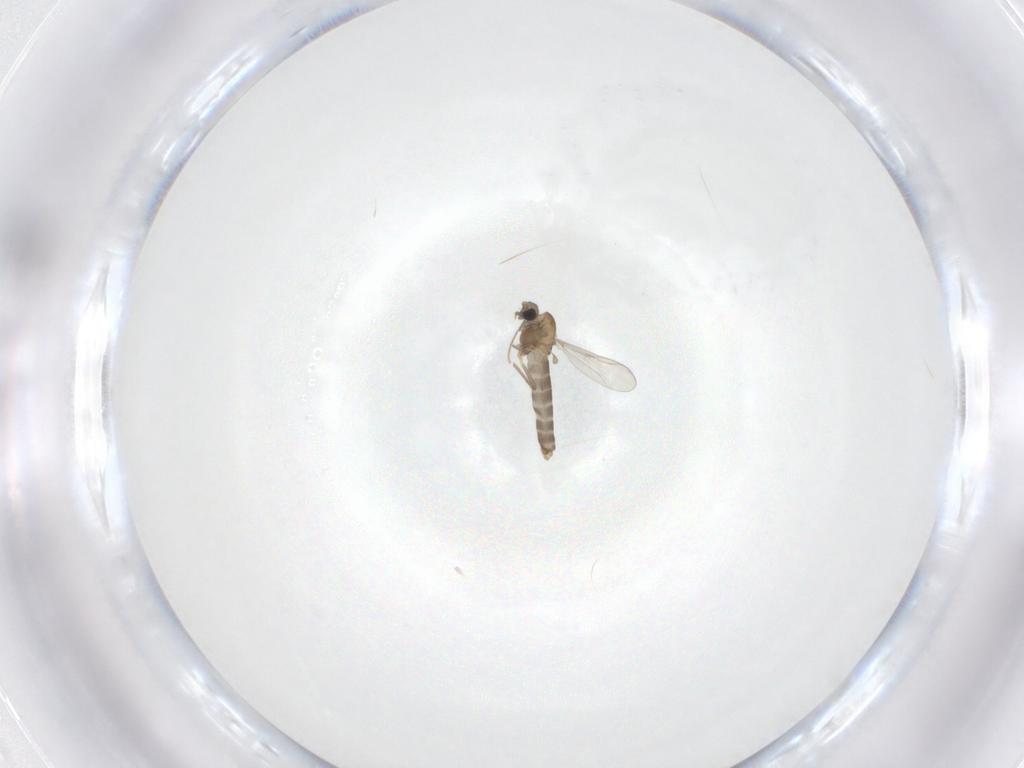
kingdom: Animalia
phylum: Arthropoda
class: Insecta
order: Diptera
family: Chironomidae
